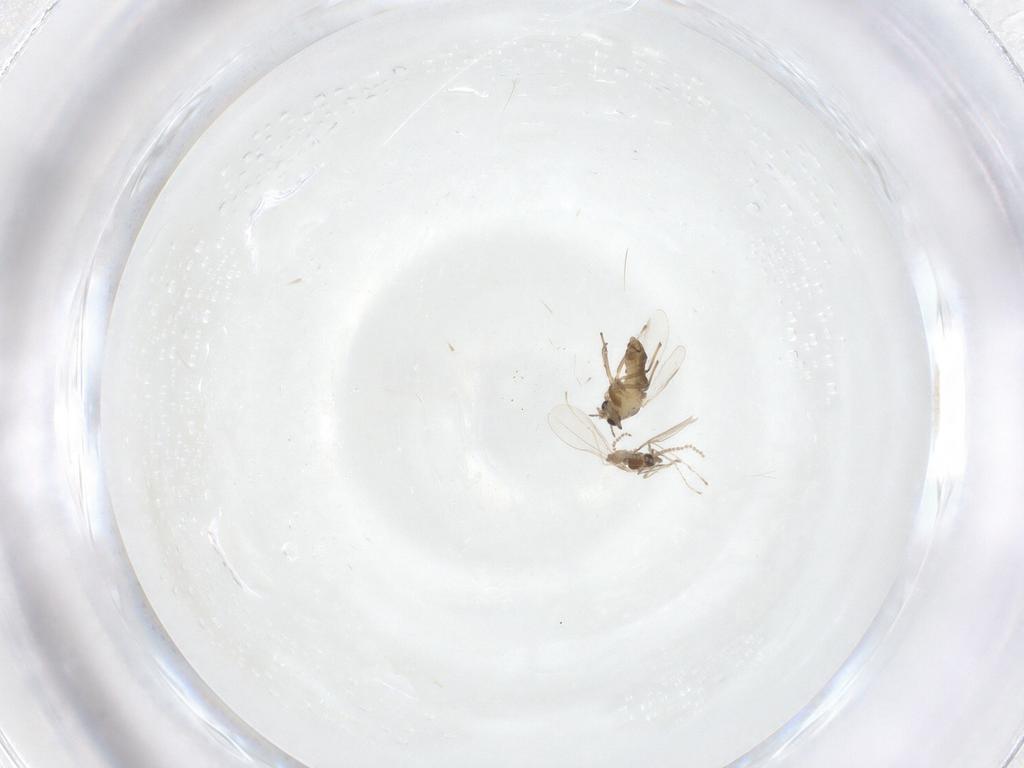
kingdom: Animalia
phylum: Arthropoda
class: Insecta
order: Diptera
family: Chironomidae
